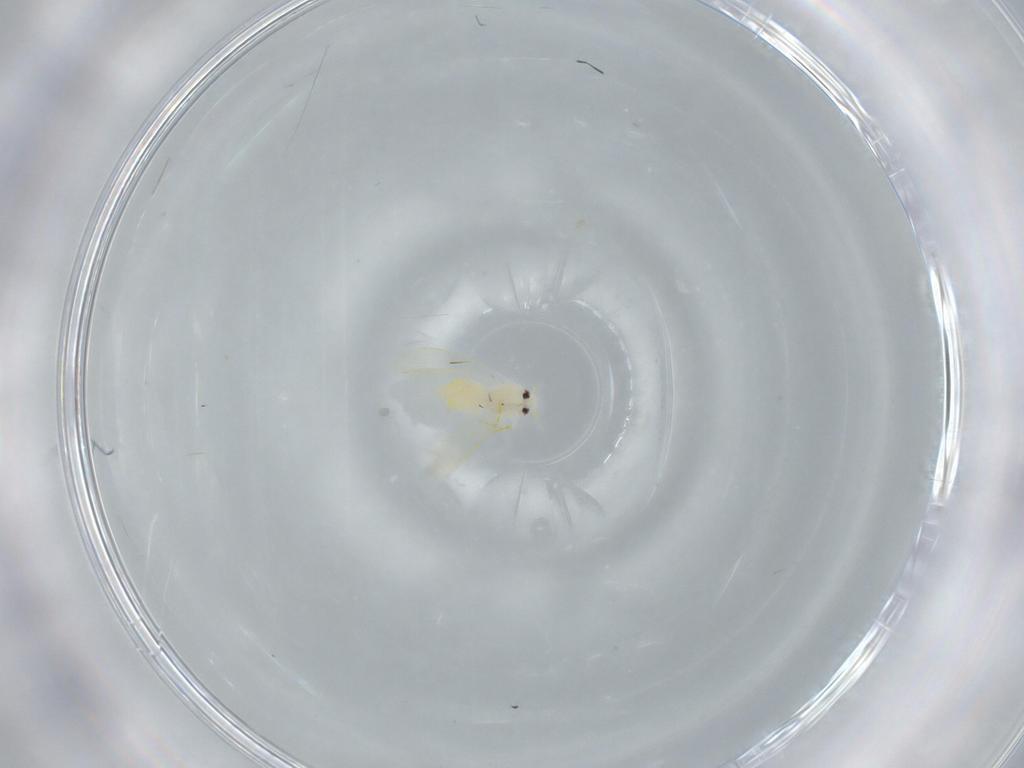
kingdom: Animalia
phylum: Arthropoda
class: Insecta
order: Hemiptera
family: Aleyrodidae
